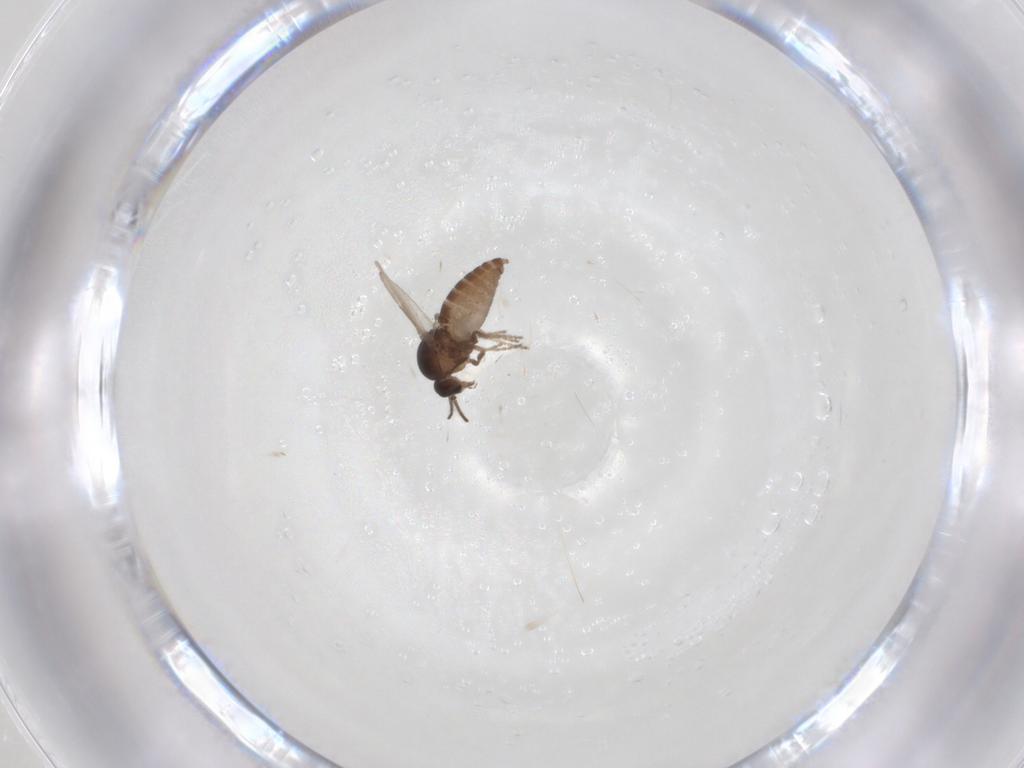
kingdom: Animalia
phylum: Arthropoda
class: Insecta
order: Diptera
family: Ceratopogonidae
